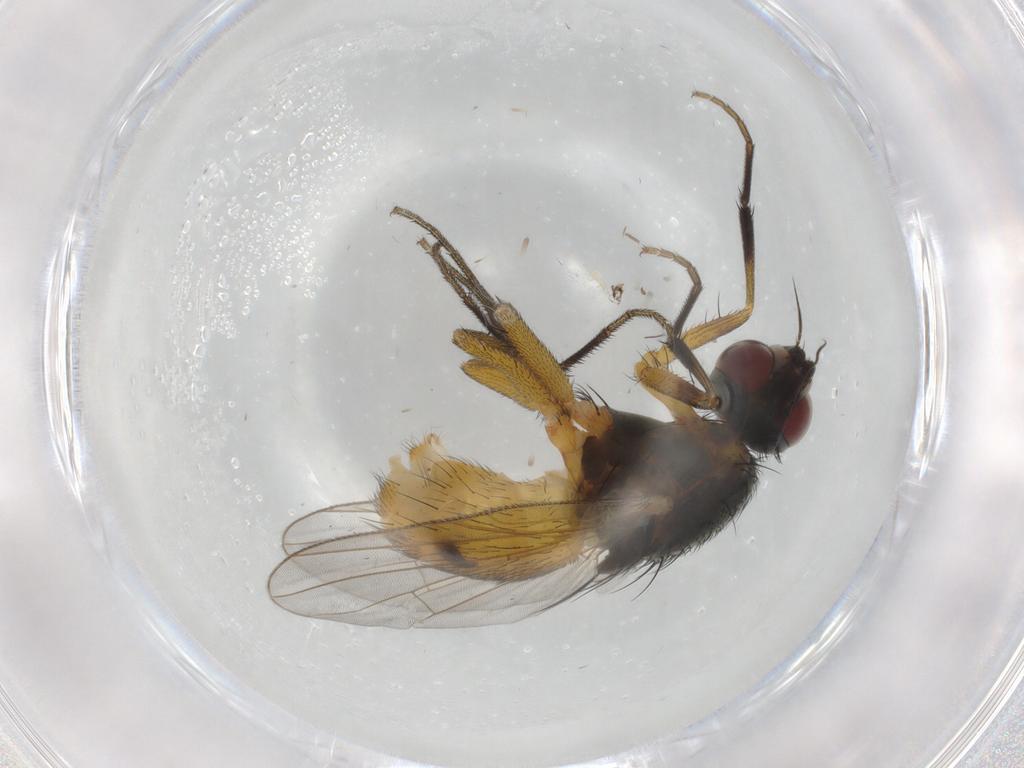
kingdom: Animalia
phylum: Arthropoda
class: Insecta
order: Diptera
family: Muscidae
